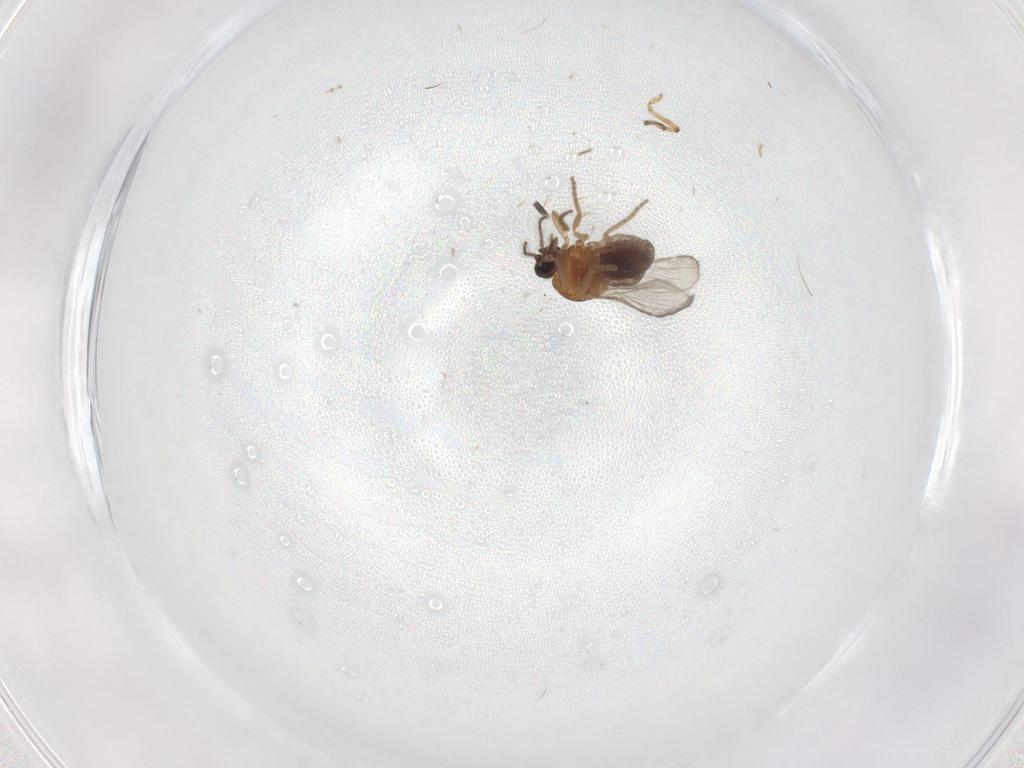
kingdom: Animalia
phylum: Arthropoda
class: Insecta
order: Diptera
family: Ceratopogonidae
